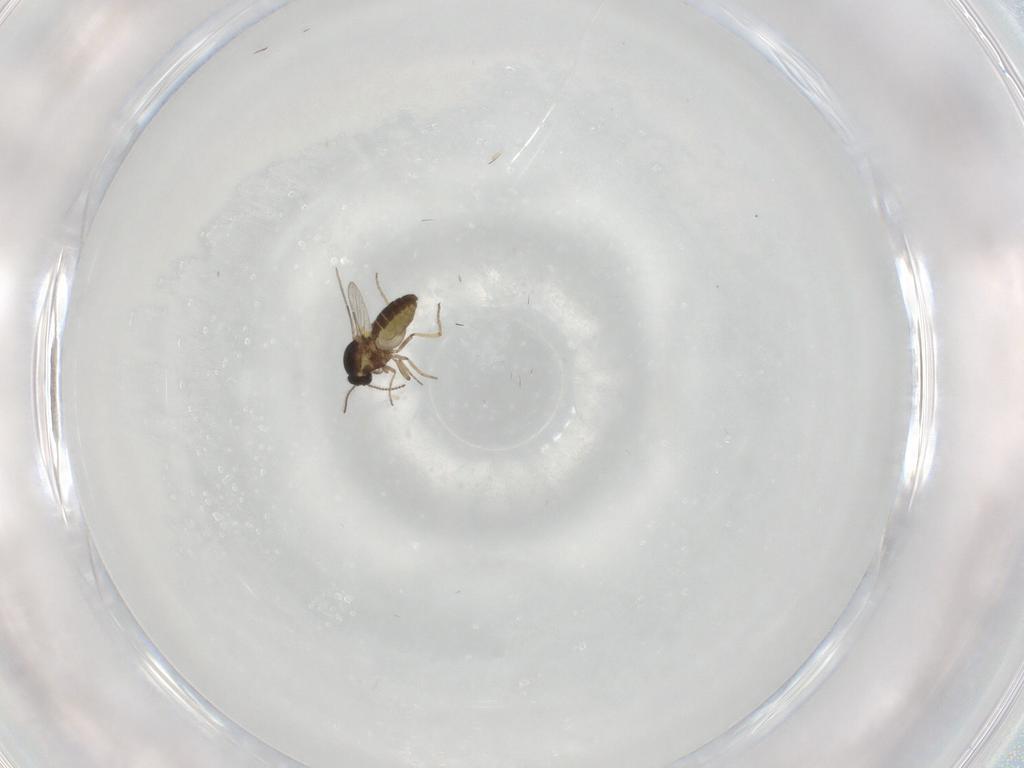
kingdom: Animalia
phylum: Arthropoda
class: Insecta
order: Diptera
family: Ceratopogonidae
